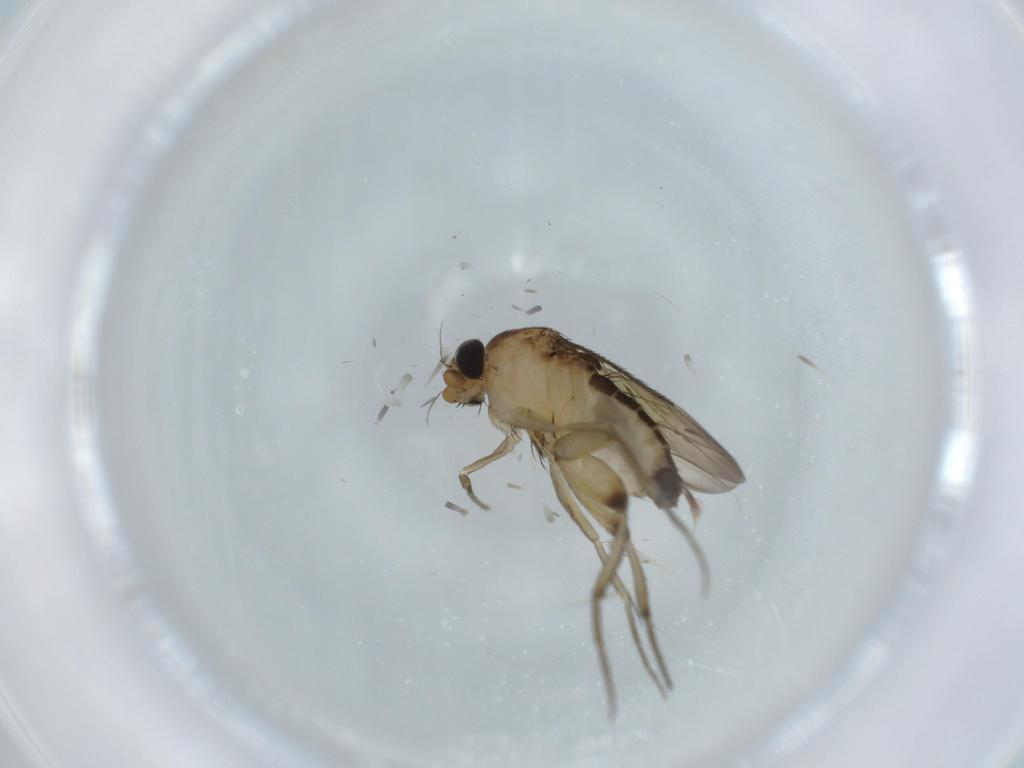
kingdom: Animalia
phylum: Arthropoda
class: Insecta
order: Diptera
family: Phoridae
